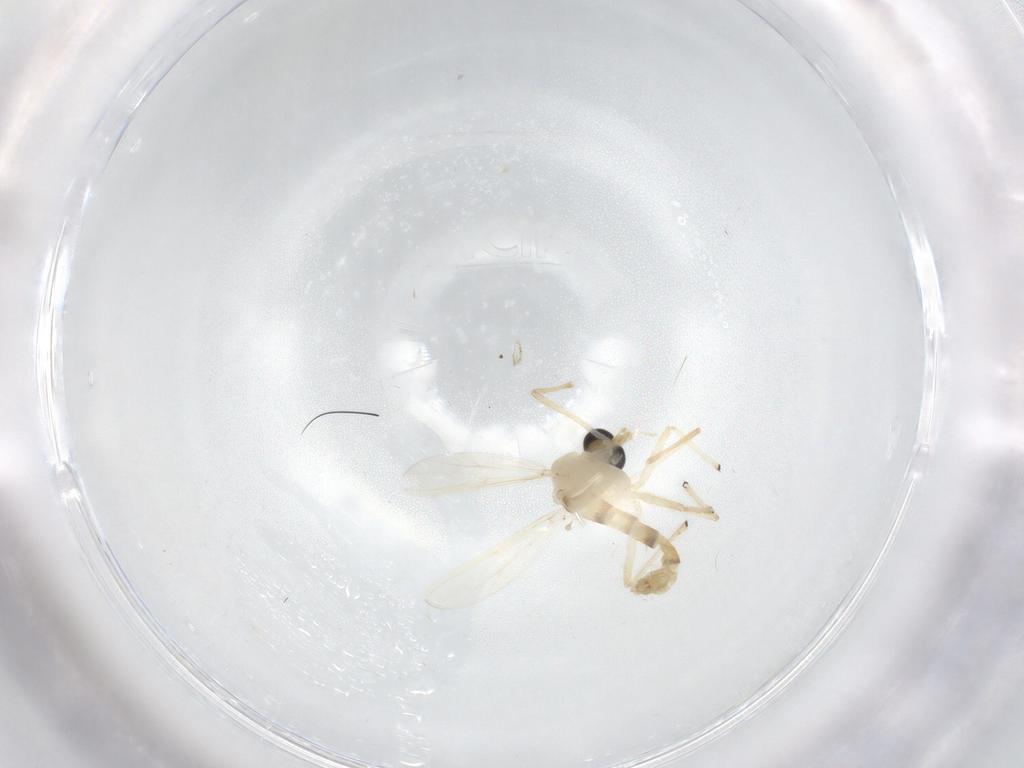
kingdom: Animalia
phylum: Arthropoda
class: Insecta
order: Diptera
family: Chironomidae
